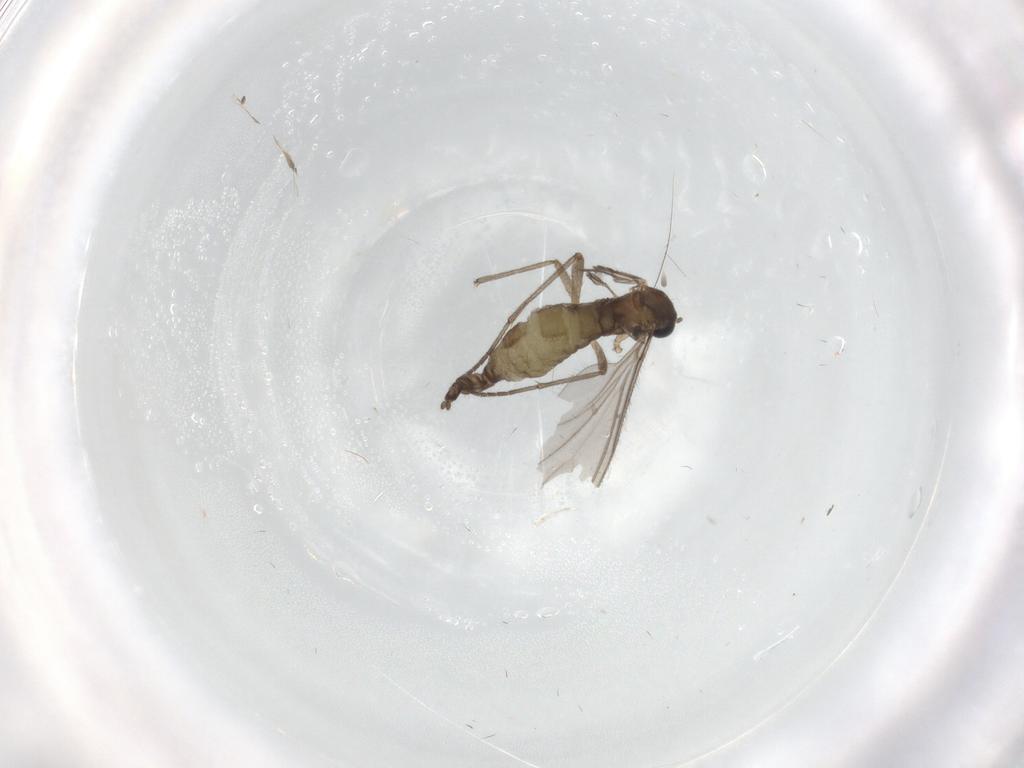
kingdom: Animalia
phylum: Arthropoda
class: Insecta
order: Diptera
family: Sciaridae
